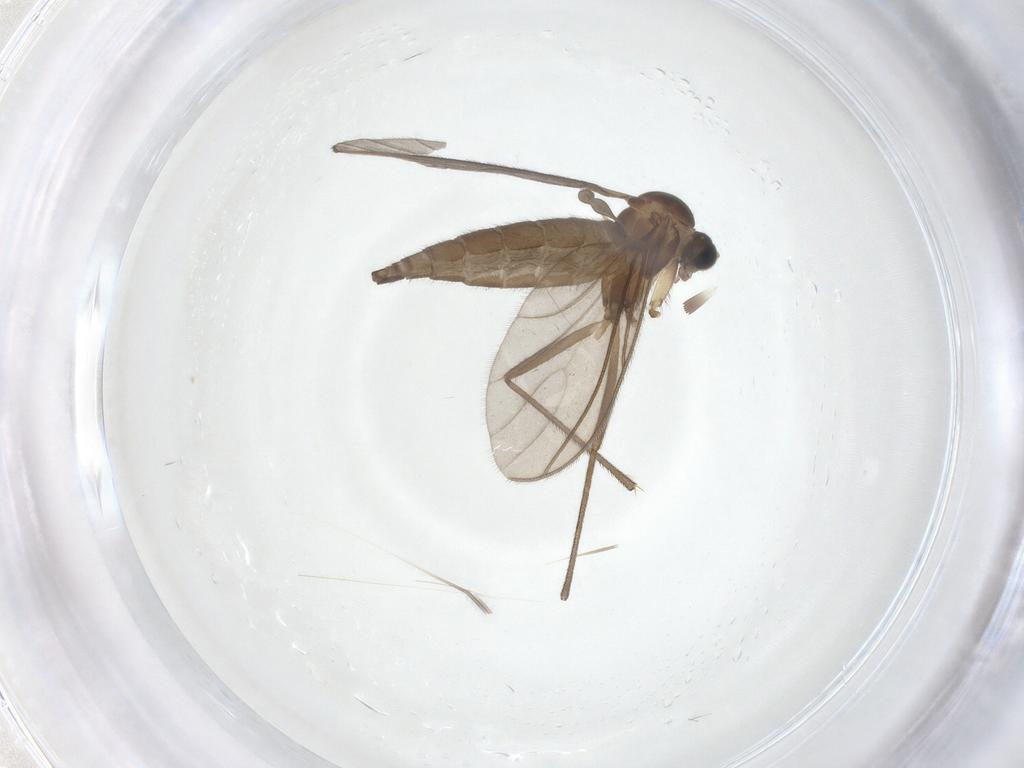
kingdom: Animalia
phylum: Arthropoda
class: Insecta
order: Diptera
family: Sciaridae
